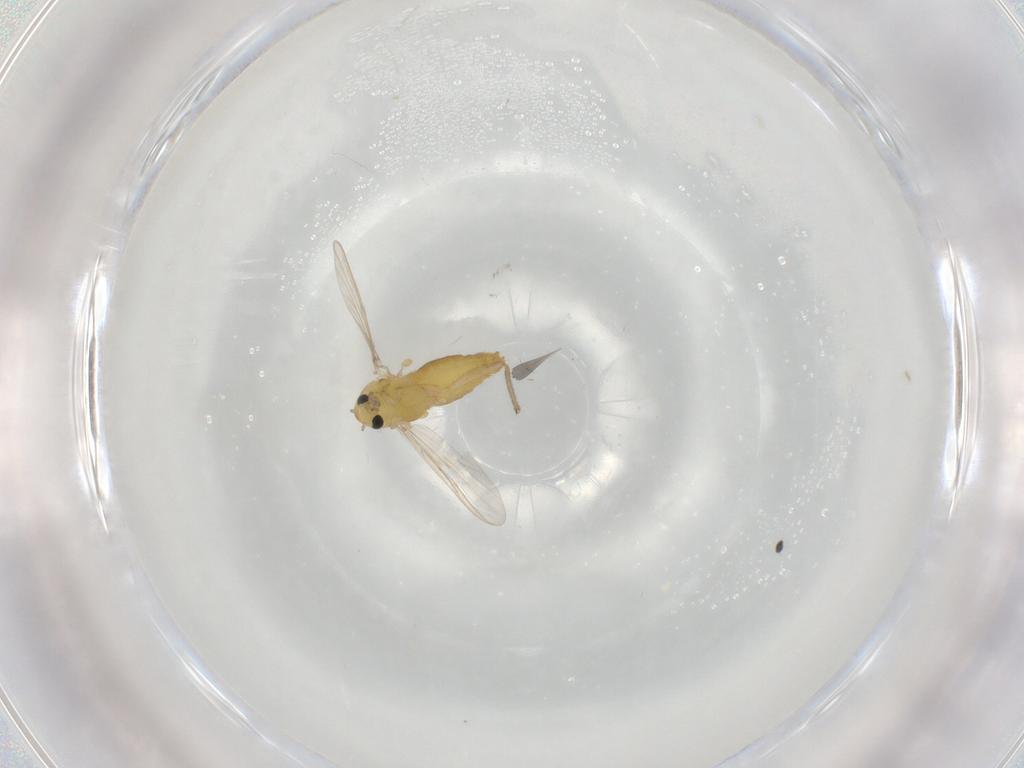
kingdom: Animalia
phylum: Arthropoda
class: Insecta
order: Diptera
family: Chironomidae
